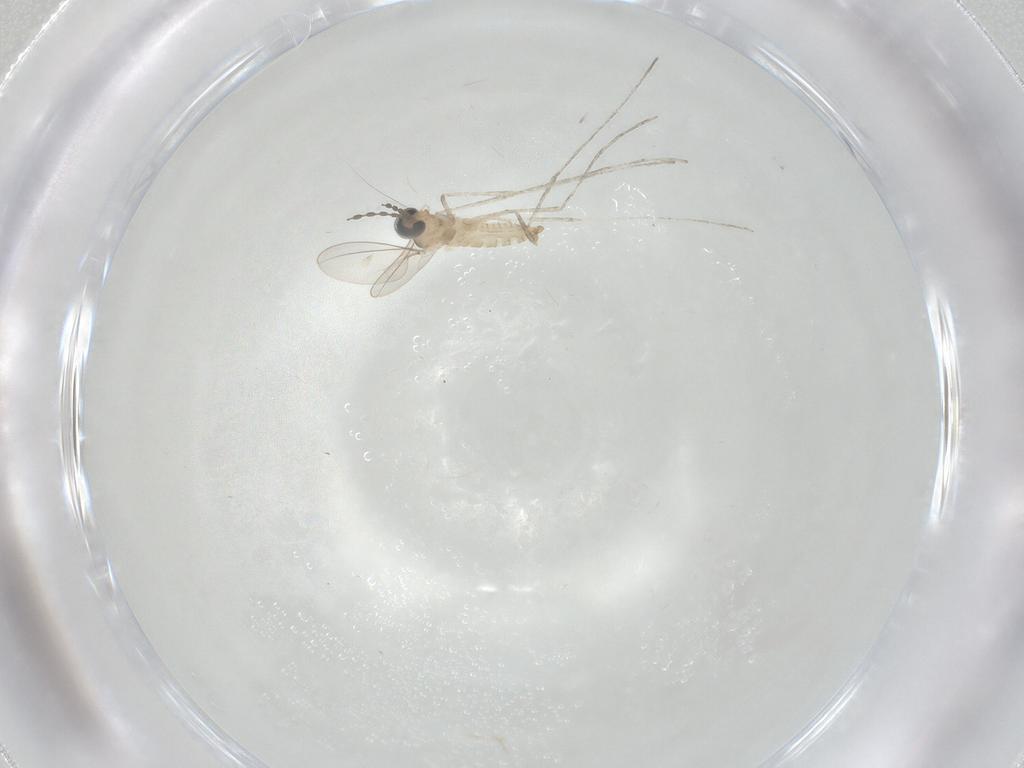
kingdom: Animalia
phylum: Arthropoda
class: Insecta
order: Diptera
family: Cecidomyiidae
